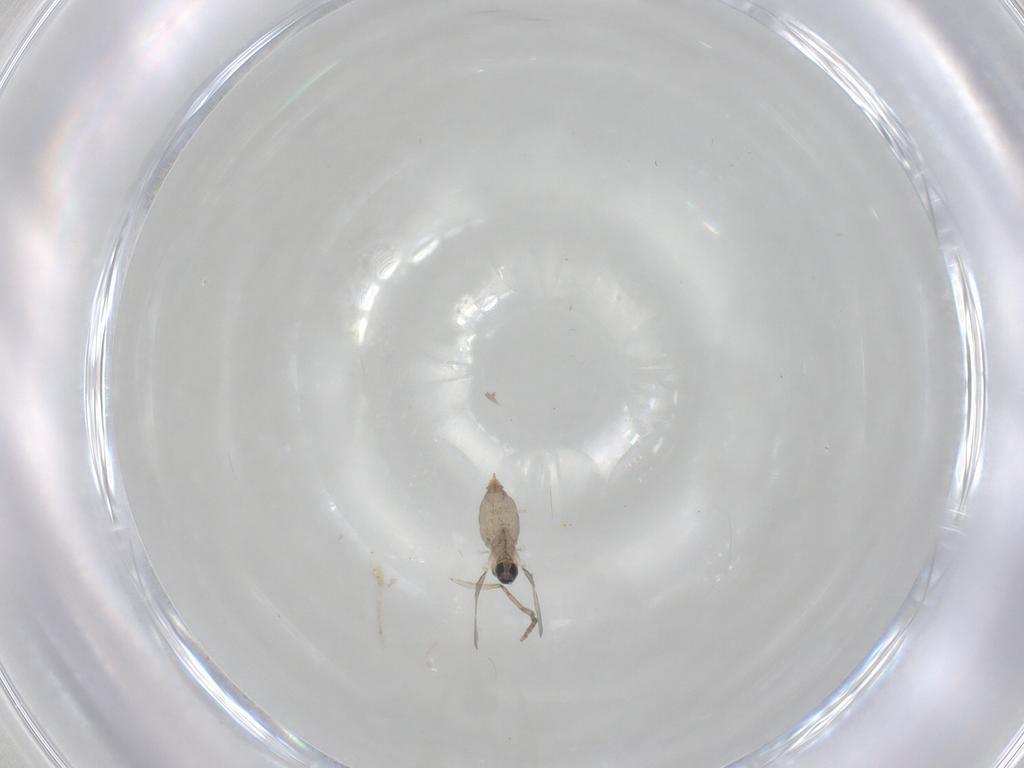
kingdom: Animalia
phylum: Arthropoda
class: Insecta
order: Diptera
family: Cecidomyiidae
